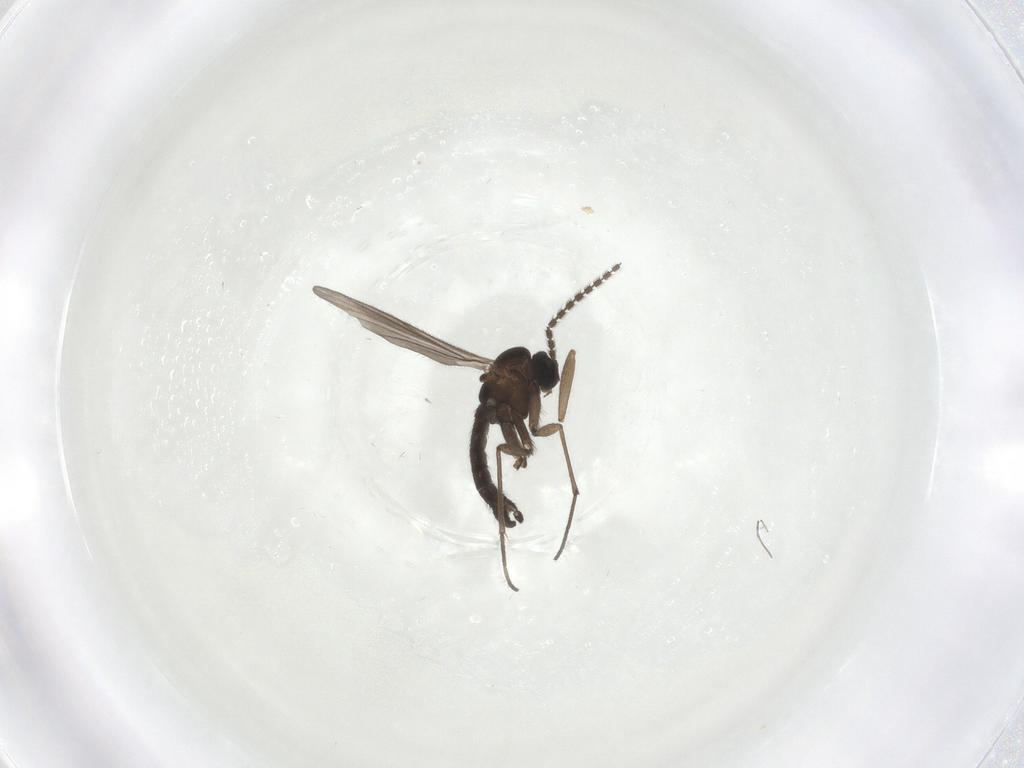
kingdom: Animalia
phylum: Arthropoda
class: Insecta
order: Diptera
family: Sciaridae
